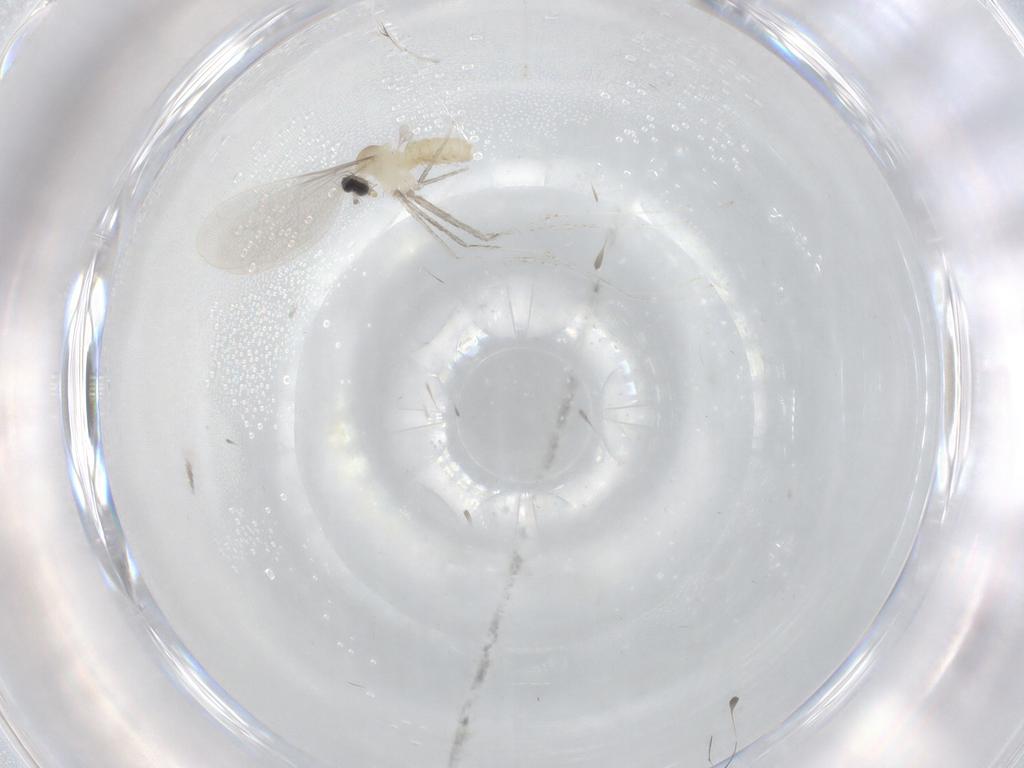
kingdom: Animalia
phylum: Arthropoda
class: Insecta
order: Diptera
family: Cecidomyiidae
